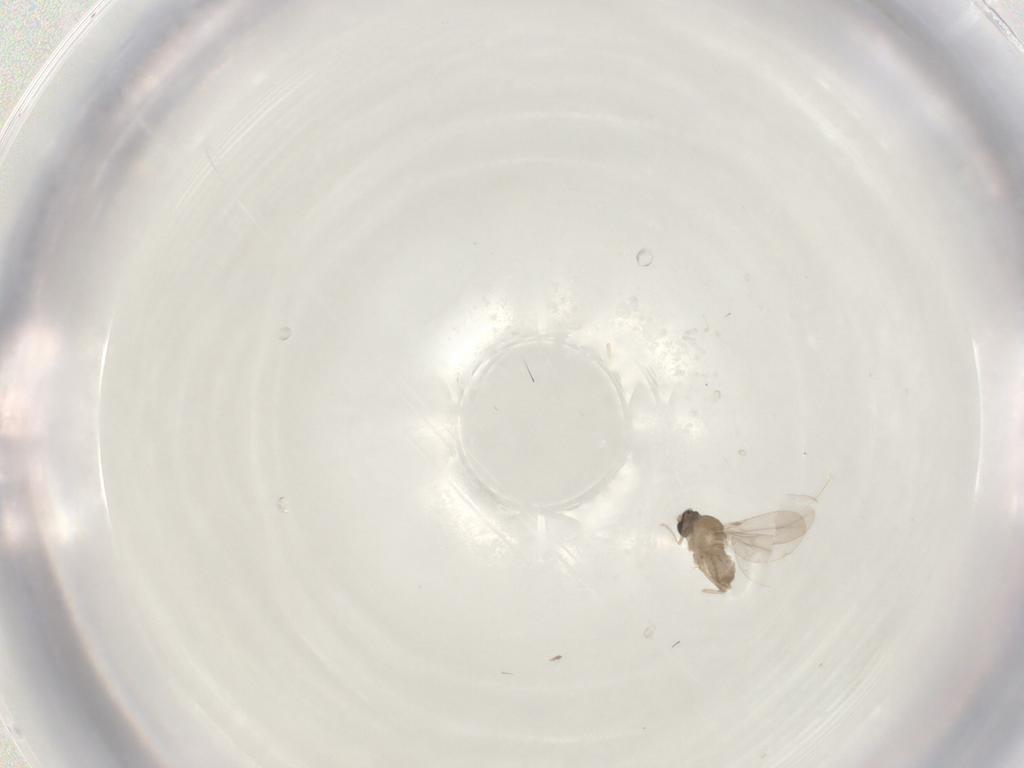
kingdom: Animalia
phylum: Arthropoda
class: Insecta
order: Diptera
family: Cecidomyiidae
